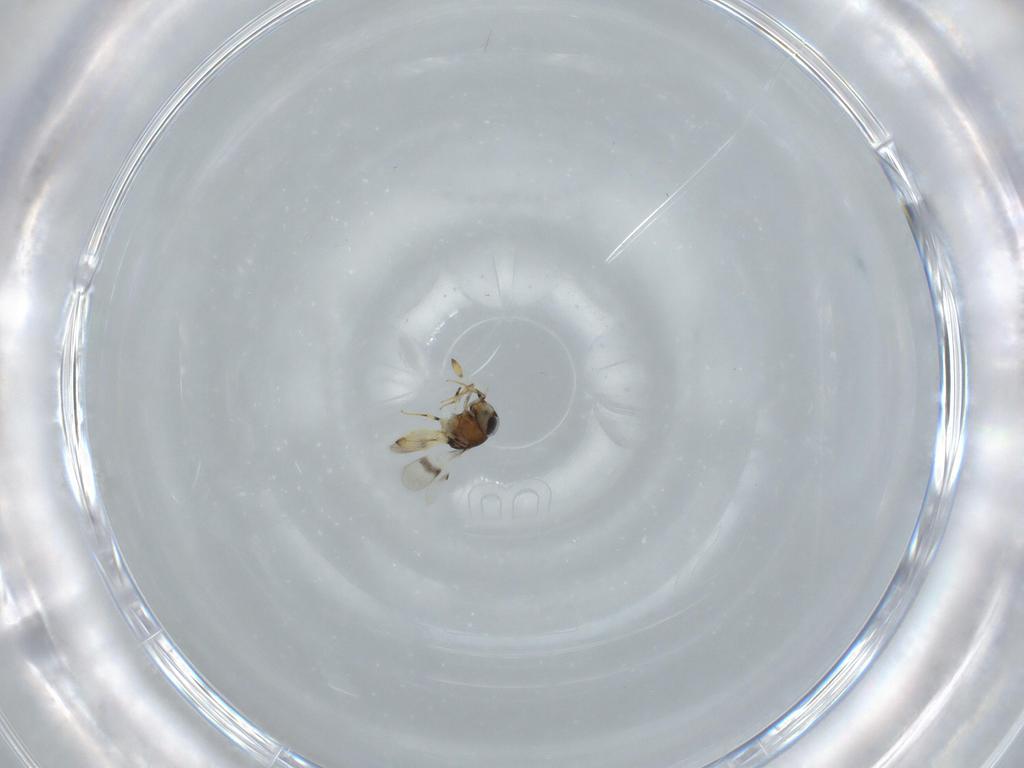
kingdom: Animalia
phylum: Arthropoda
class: Insecta
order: Hymenoptera
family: Scelionidae
